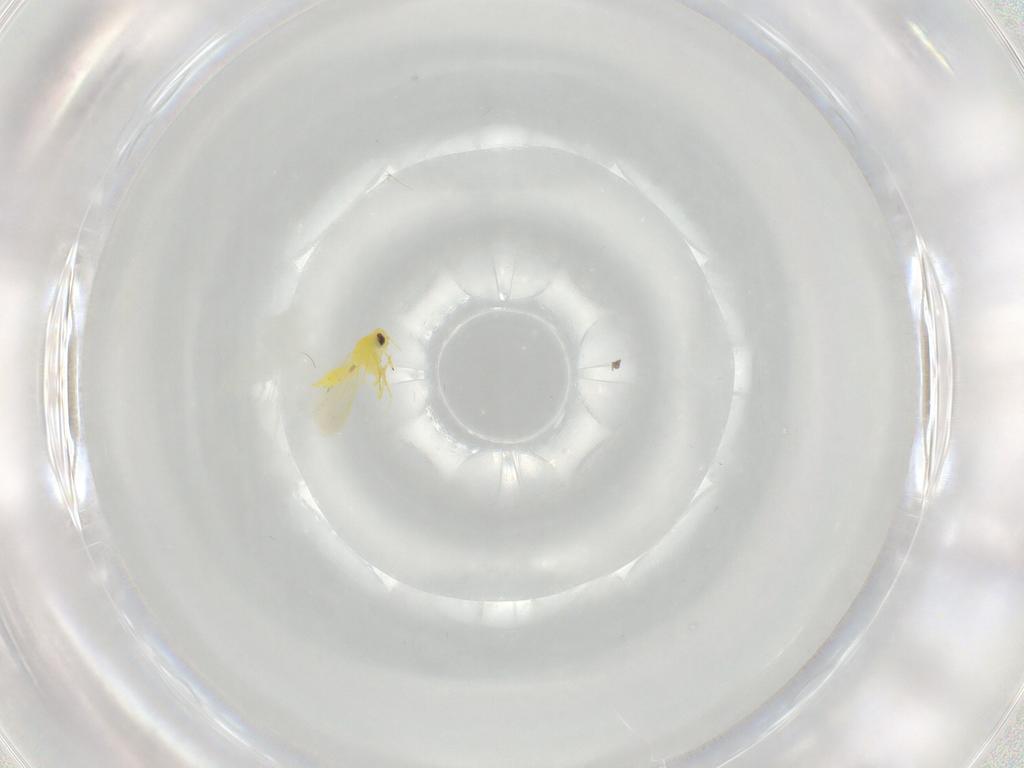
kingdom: Animalia
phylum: Arthropoda
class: Insecta
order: Hemiptera
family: Aleyrodidae
